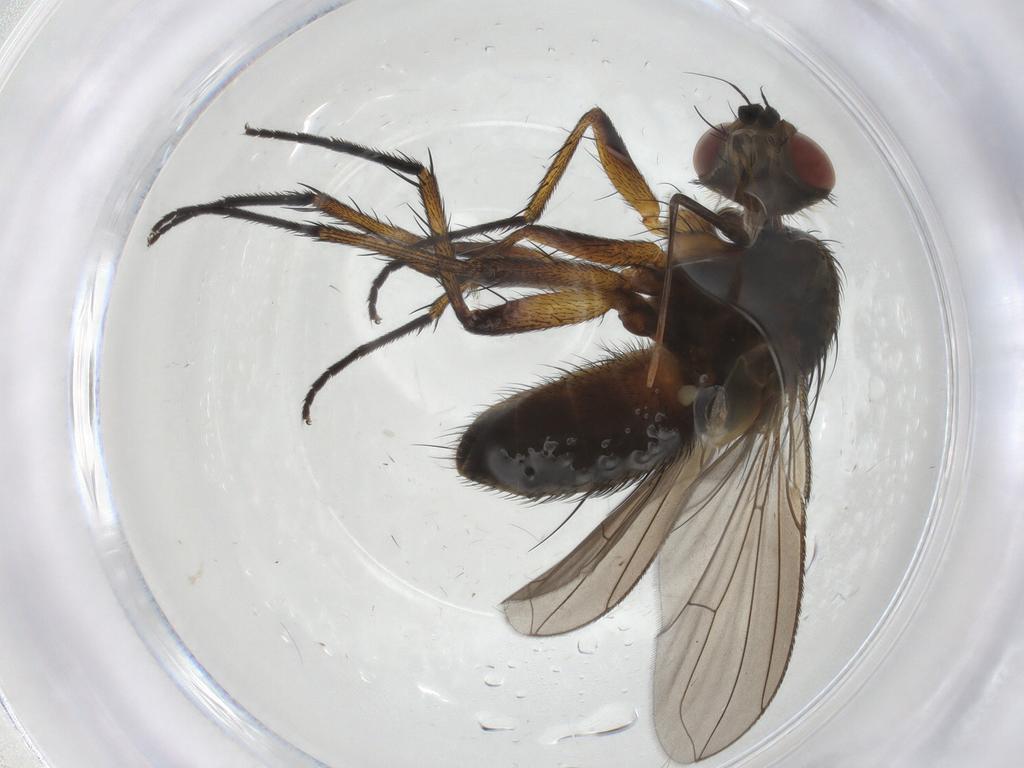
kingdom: Animalia
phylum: Arthropoda
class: Insecta
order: Diptera
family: Tachinidae
